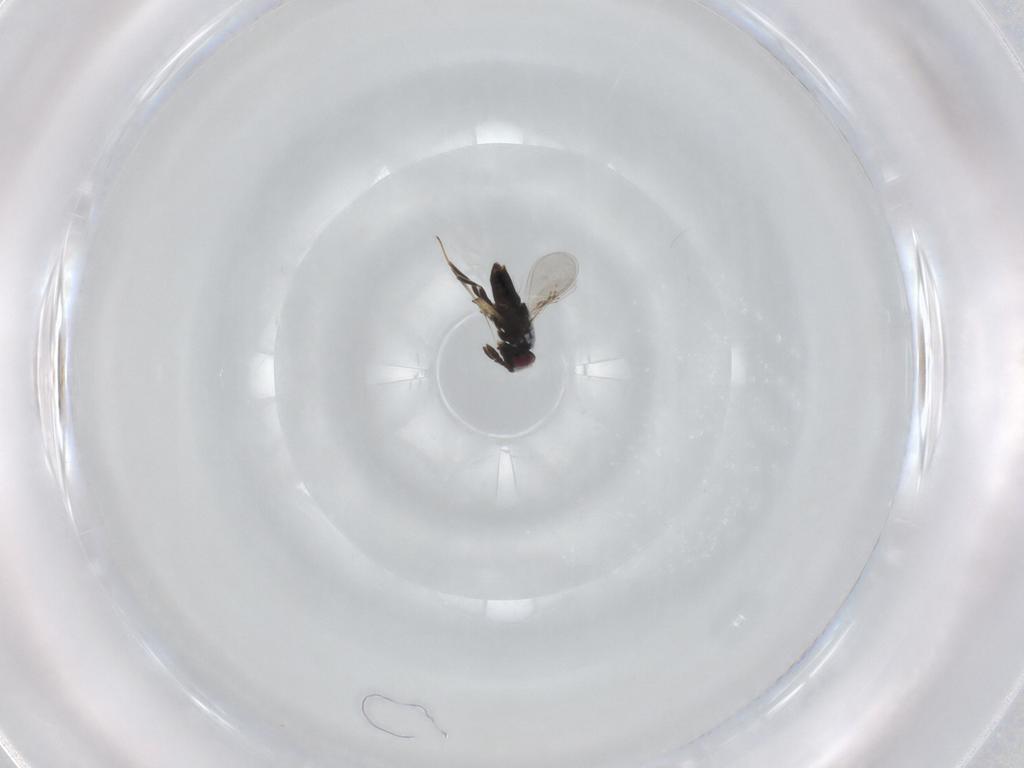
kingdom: Animalia
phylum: Arthropoda
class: Insecta
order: Hymenoptera
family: Encyrtidae
